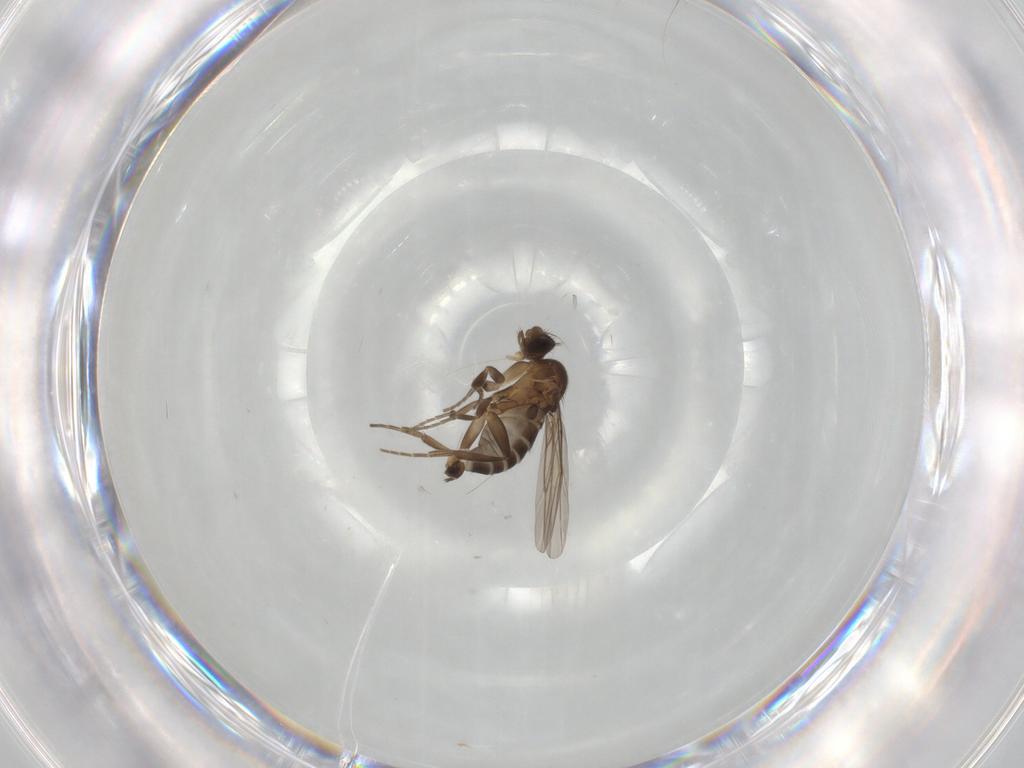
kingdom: Animalia
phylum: Arthropoda
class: Insecta
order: Diptera
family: Phoridae
